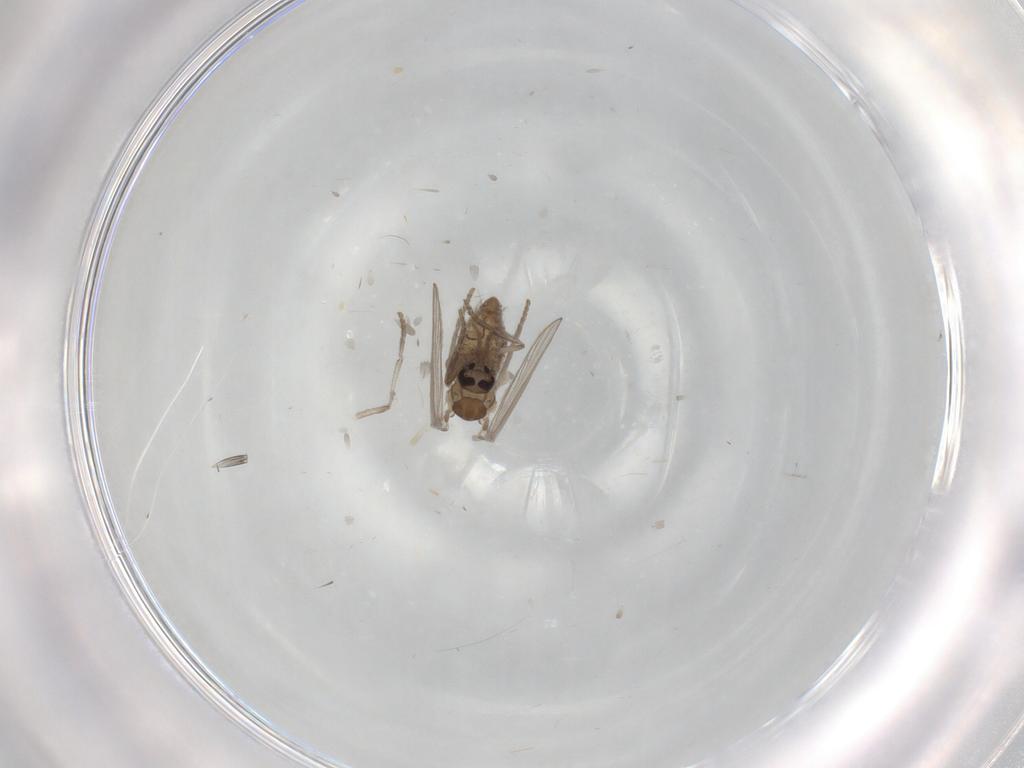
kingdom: Animalia
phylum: Arthropoda
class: Insecta
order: Diptera
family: Psychodidae
